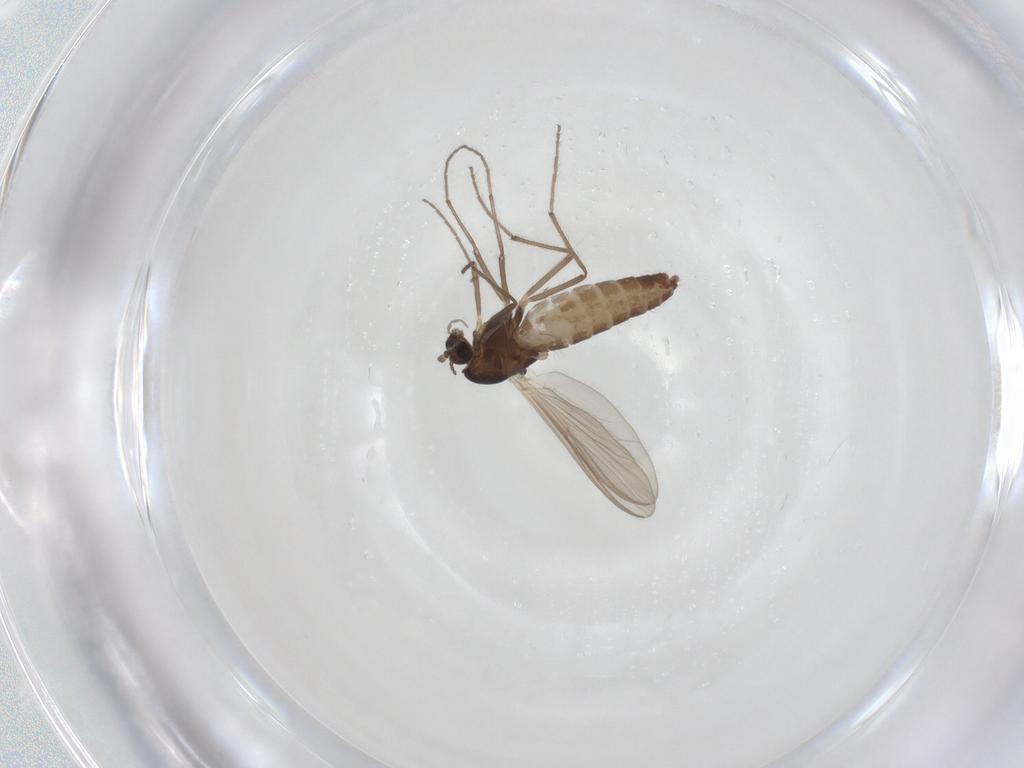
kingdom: Animalia
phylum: Arthropoda
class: Insecta
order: Diptera
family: Chironomidae
